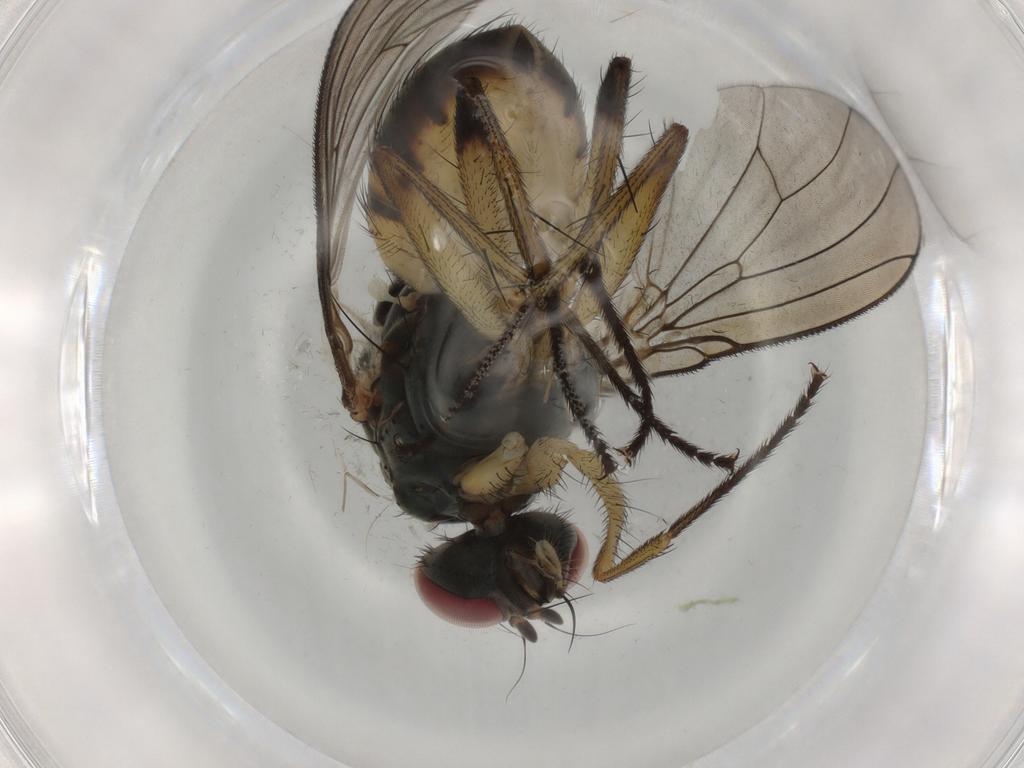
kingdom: Animalia
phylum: Arthropoda
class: Insecta
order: Diptera
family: Muscidae
